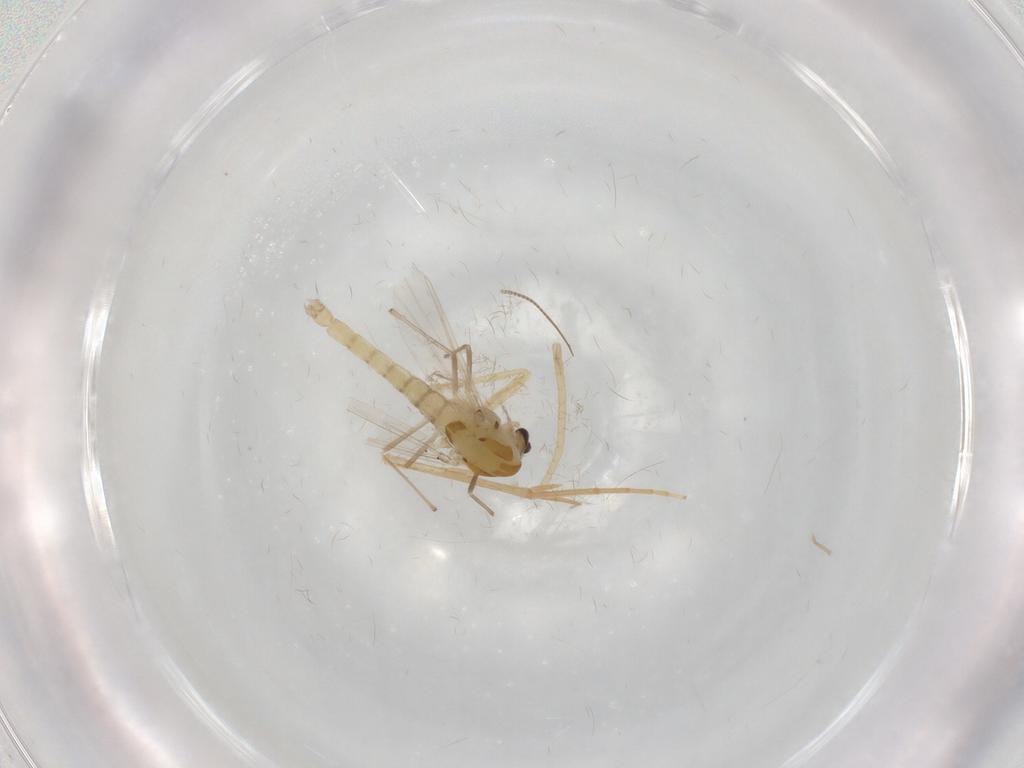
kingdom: Animalia
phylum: Arthropoda
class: Insecta
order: Diptera
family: Chironomidae
